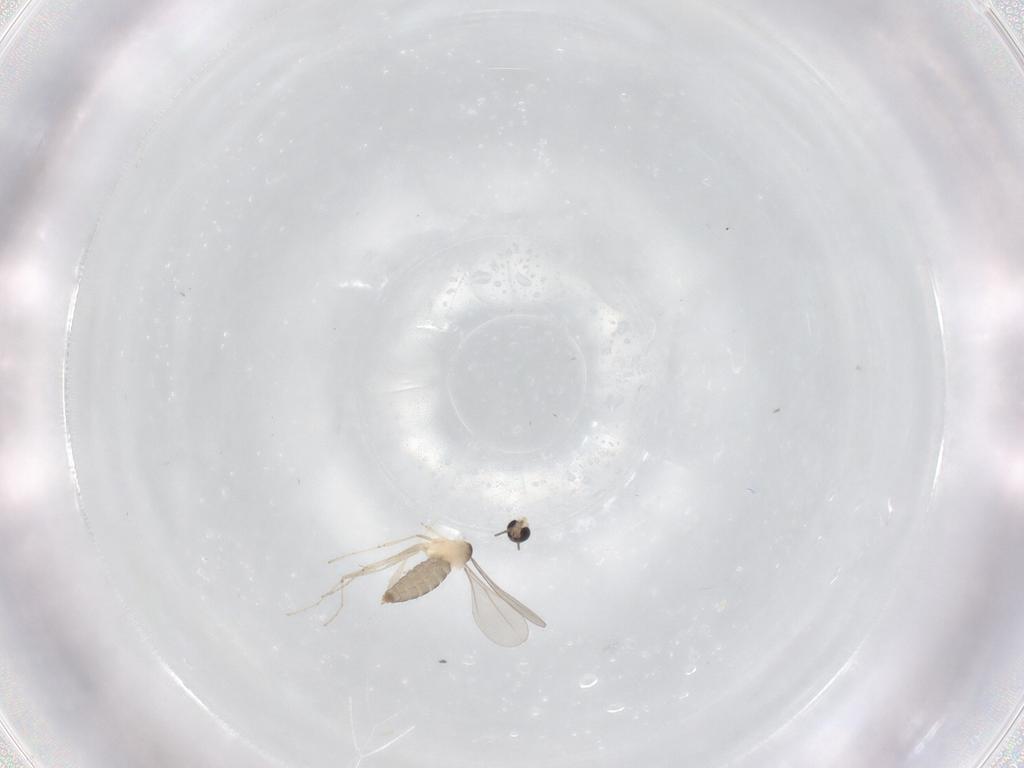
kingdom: Animalia
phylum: Arthropoda
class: Insecta
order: Diptera
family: Cecidomyiidae
